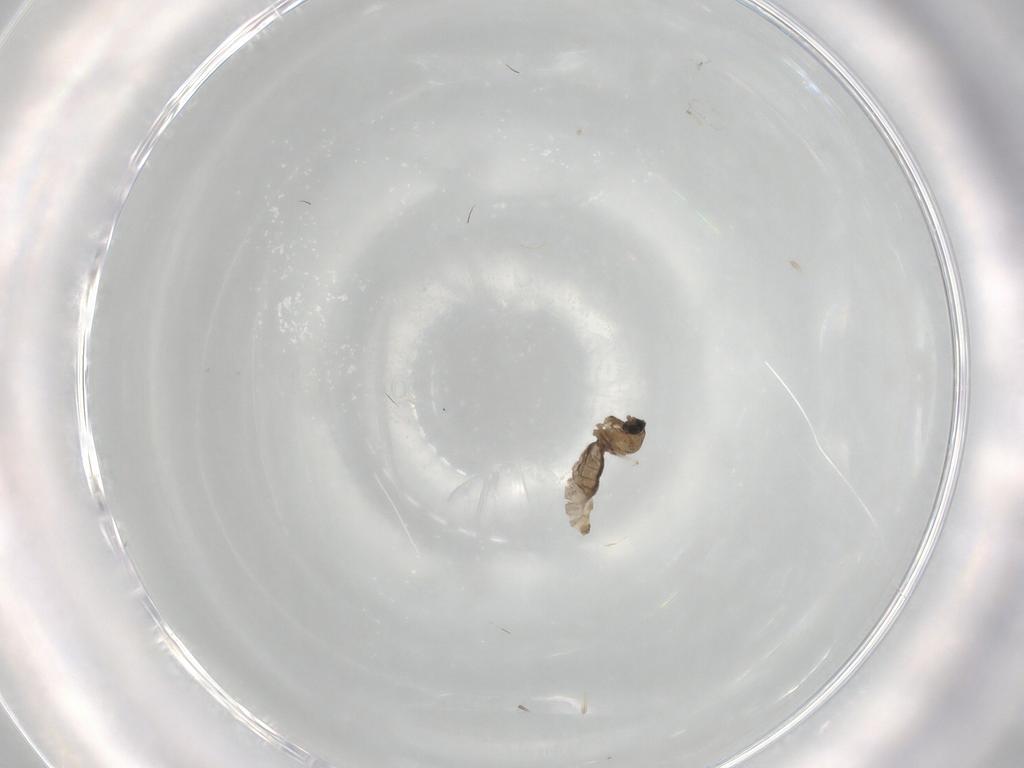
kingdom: Animalia
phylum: Arthropoda
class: Insecta
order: Diptera
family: Cecidomyiidae
